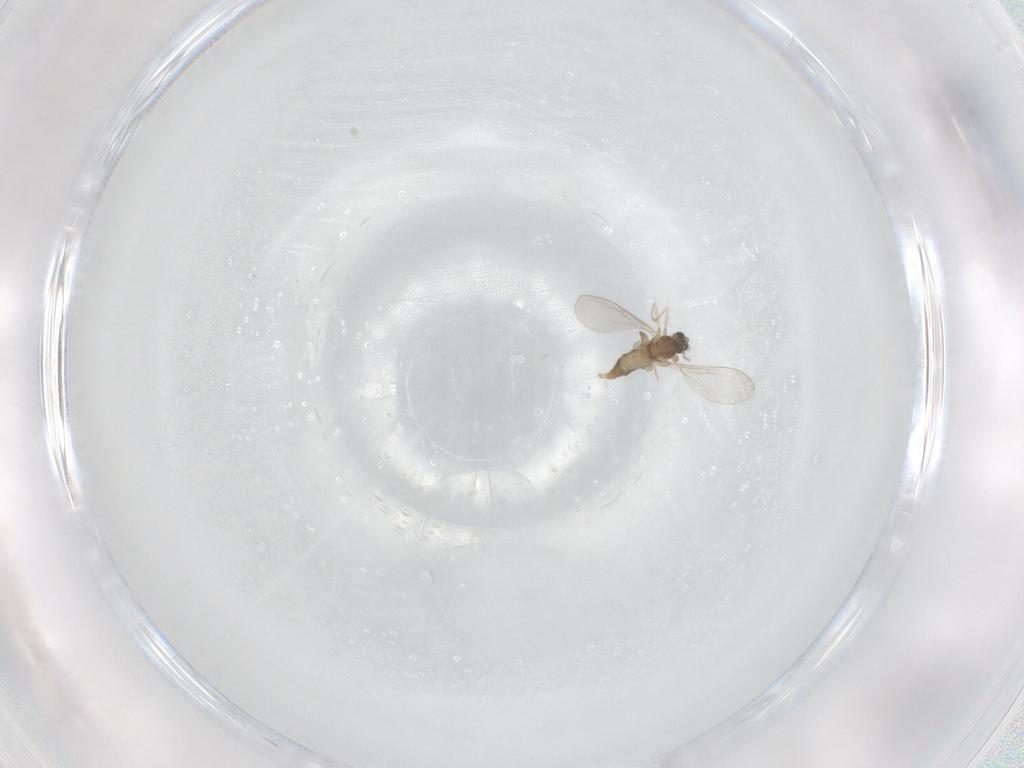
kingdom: Animalia
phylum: Arthropoda
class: Insecta
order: Diptera
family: Cecidomyiidae
